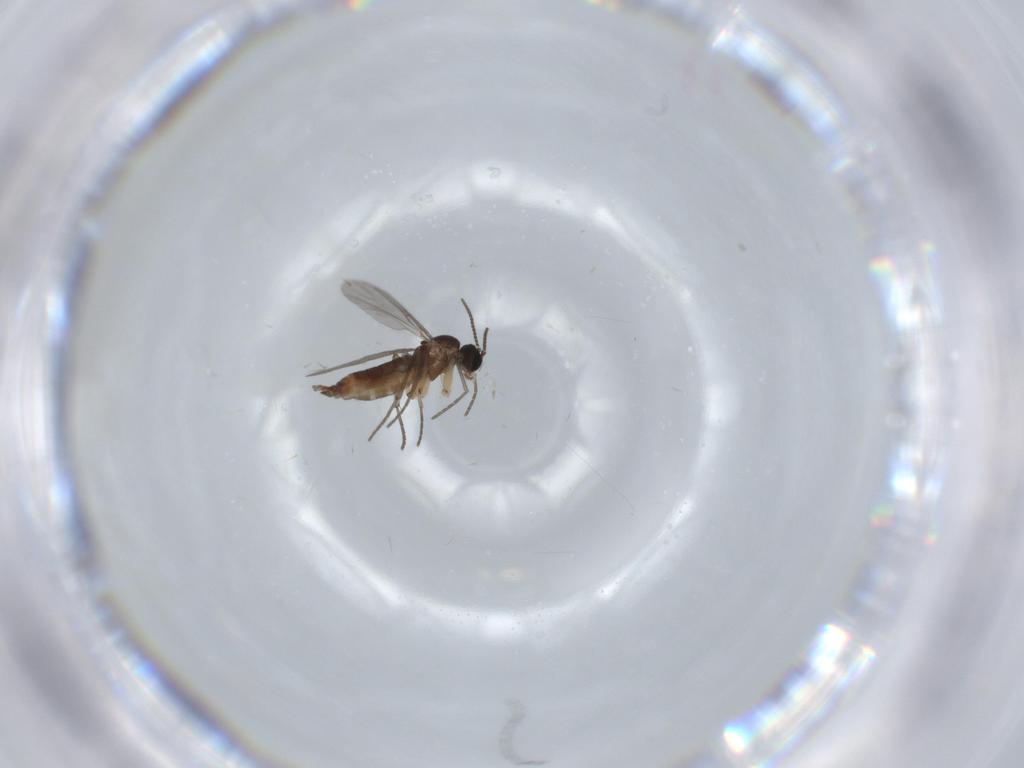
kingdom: Animalia
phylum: Arthropoda
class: Insecta
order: Diptera
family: Sciaridae
